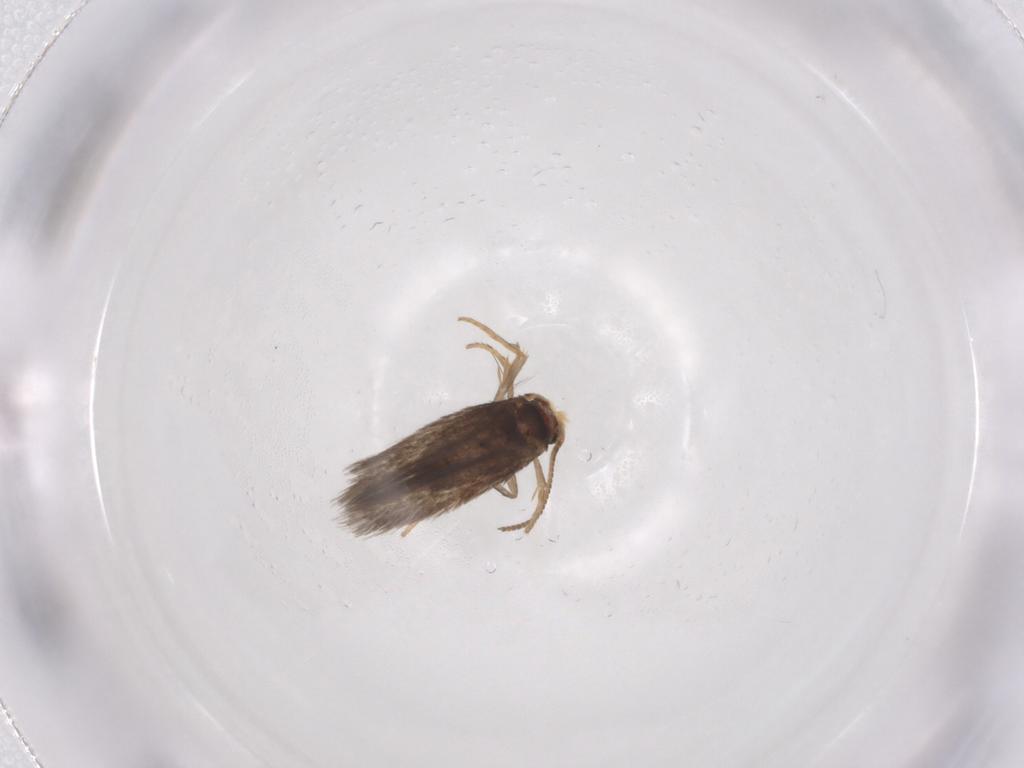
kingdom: Animalia
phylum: Arthropoda
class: Insecta
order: Lepidoptera
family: Nepticulidae
